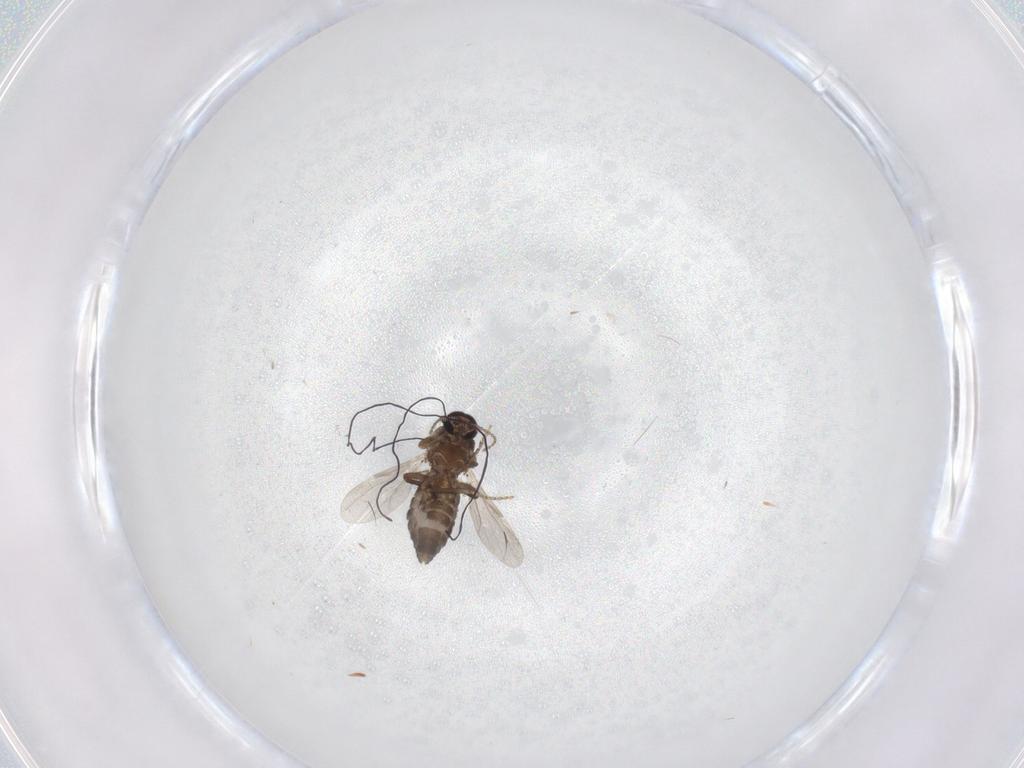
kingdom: Animalia
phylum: Arthropoda
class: Insecta
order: Diptera
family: Ceratopogonidae
